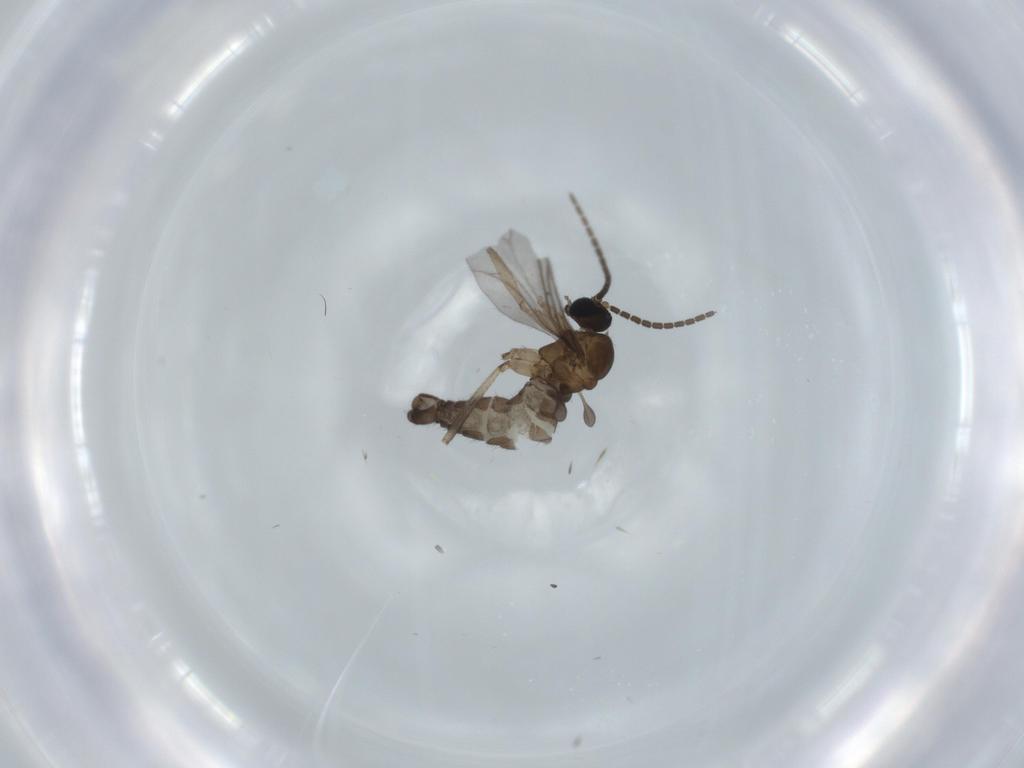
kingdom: Animalia
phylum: Arthropoda
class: Insecta
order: Diptera
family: Sciaridae
